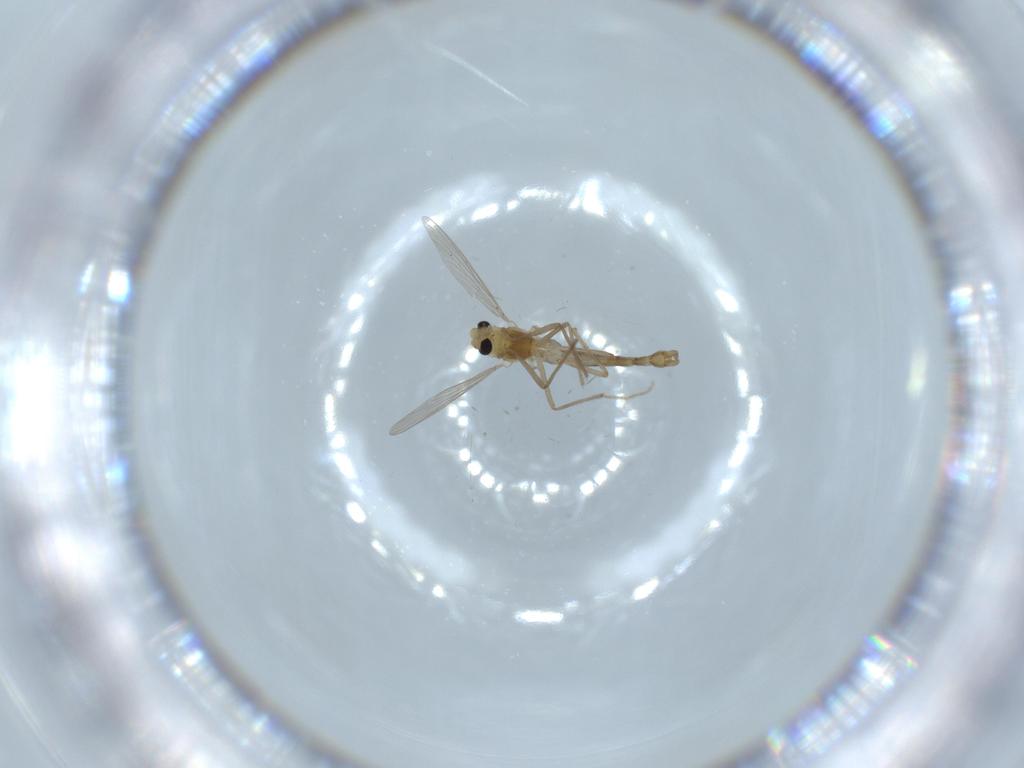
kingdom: Animalia
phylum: Arthropoda
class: Insecta
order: Diptera
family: Chironomidae
